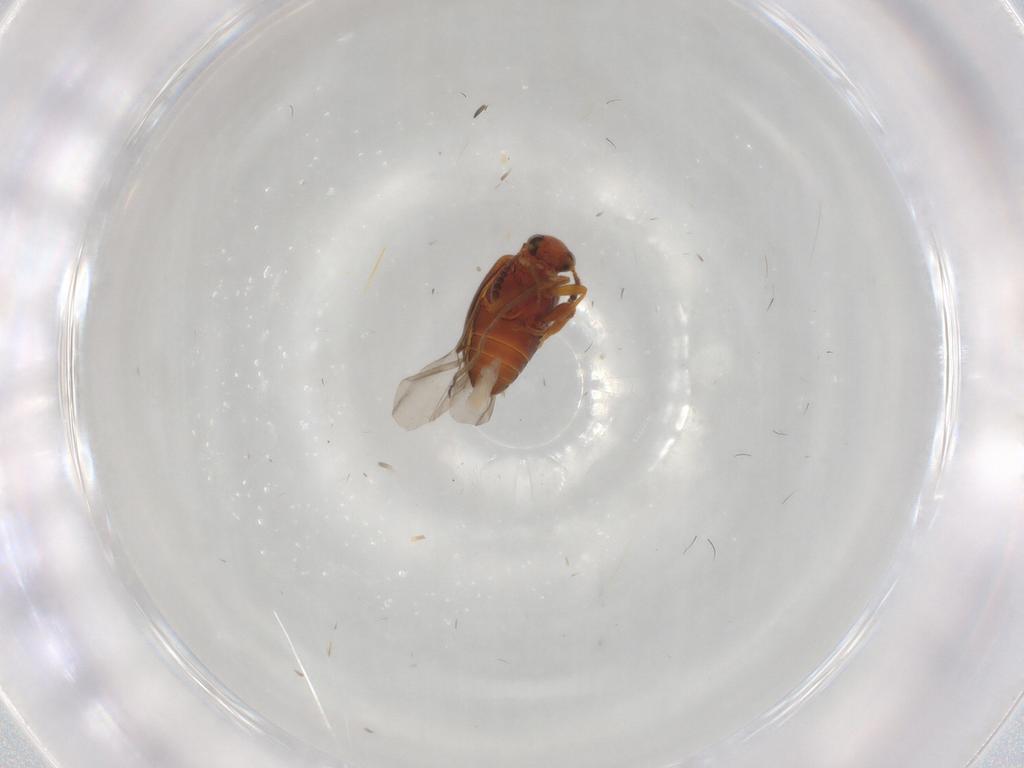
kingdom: Animalia
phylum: Arthropoda
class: Insecta
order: Coleoptera
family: Aderidae
